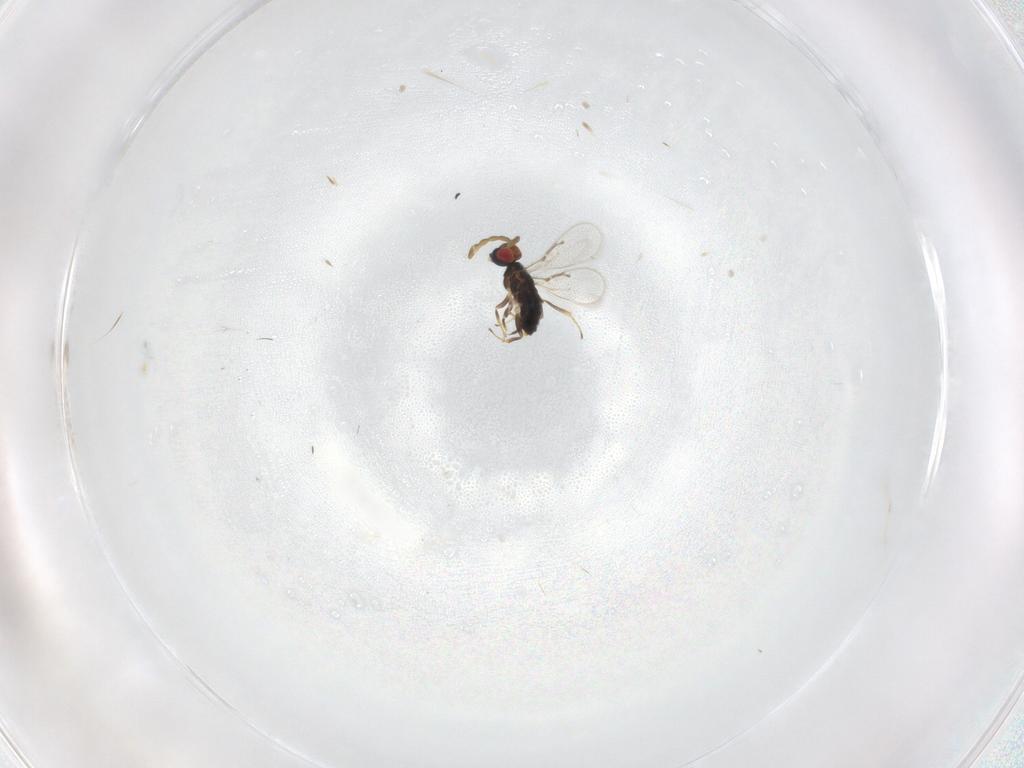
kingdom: Animalia
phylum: Arthropoda
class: Insecta
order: Hymenoptera
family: Azotidae
